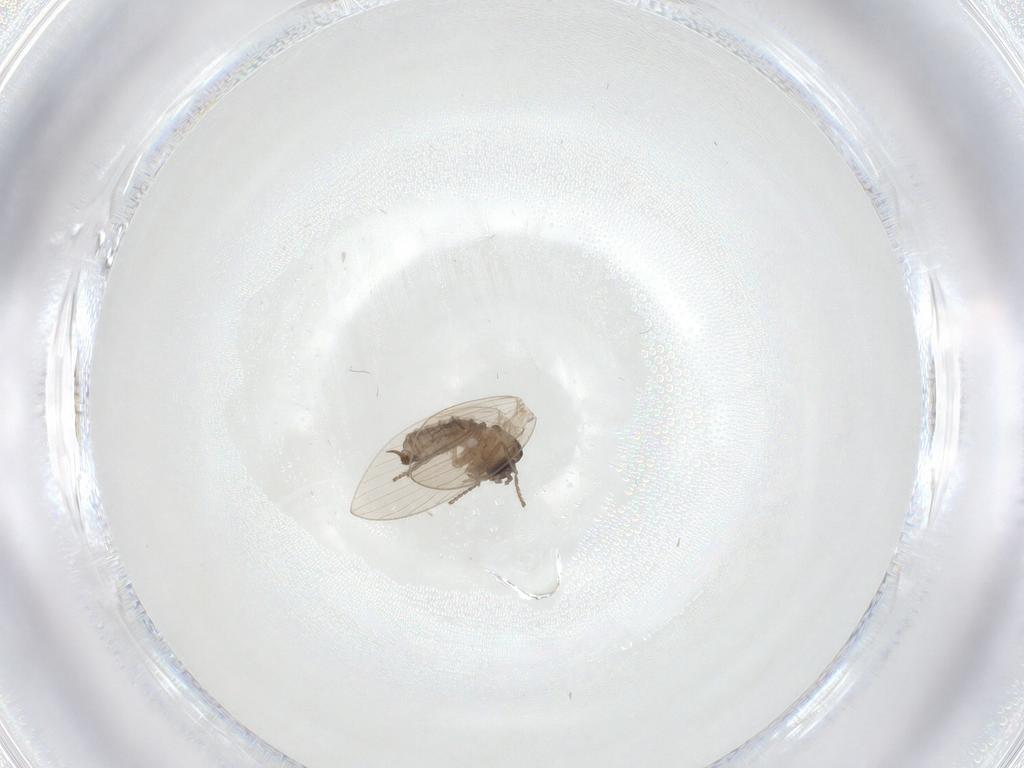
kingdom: Animalia
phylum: Arthropoda
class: Insecta
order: Diptera
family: Psychodidae
